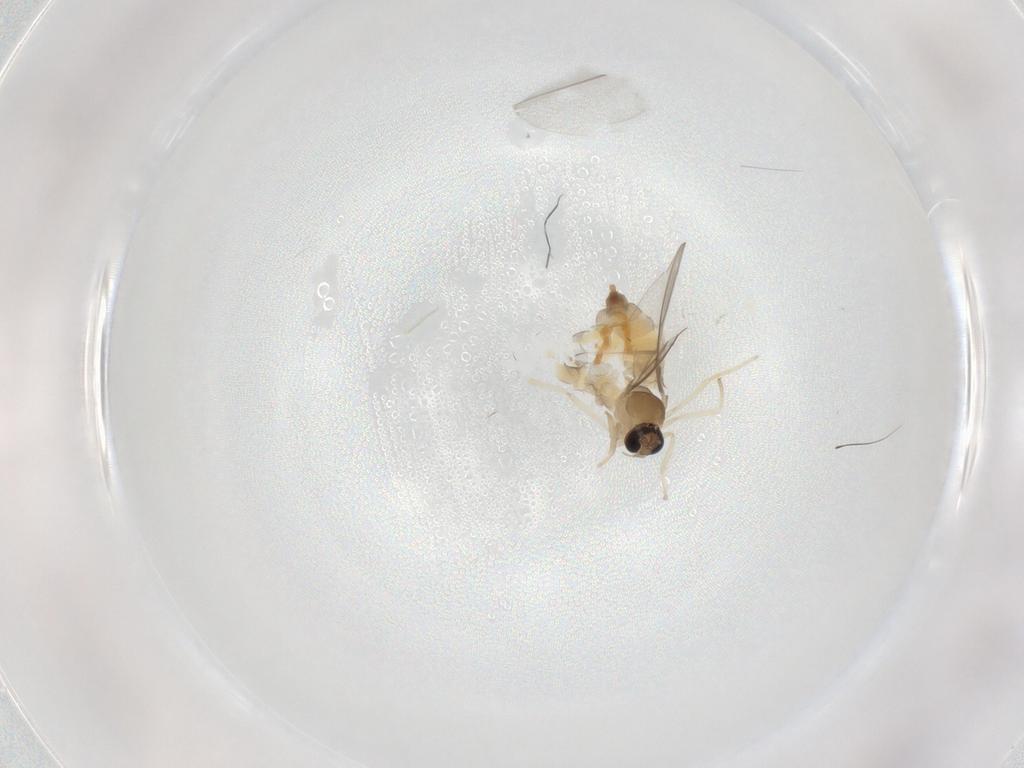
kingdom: Animalia
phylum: Arthropoda
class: Insecta
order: Diptera
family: Cecidomyiidae
